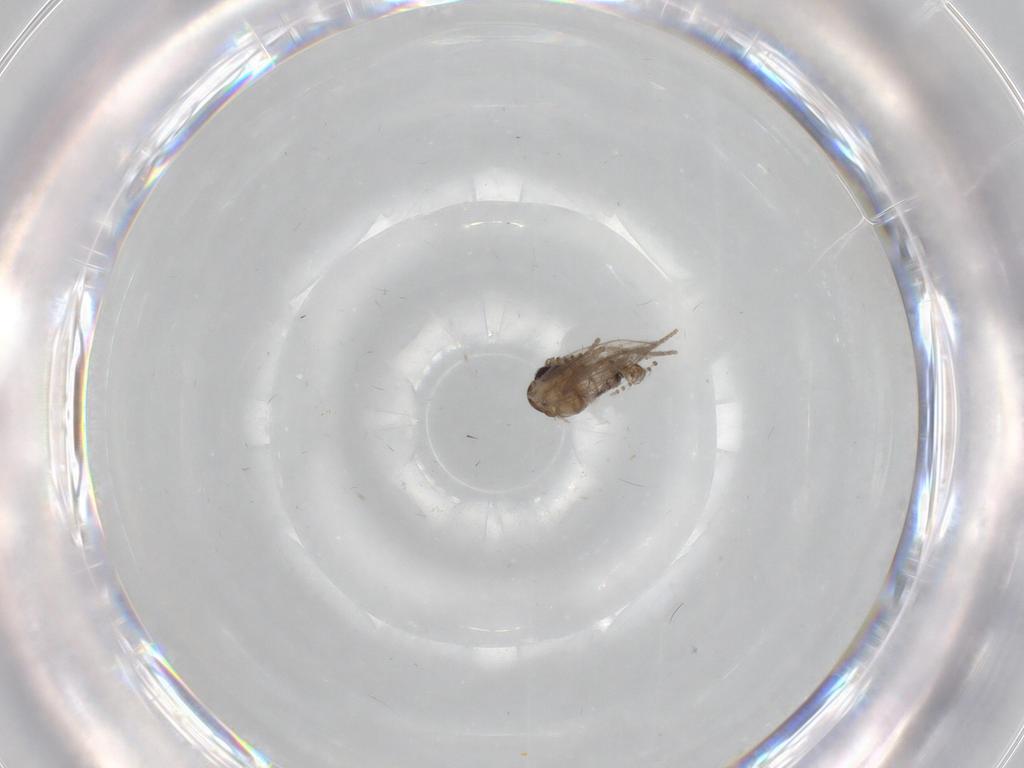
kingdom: Animalia
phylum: Arthropoda
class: Insecta
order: Diptera
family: Psychodidae
